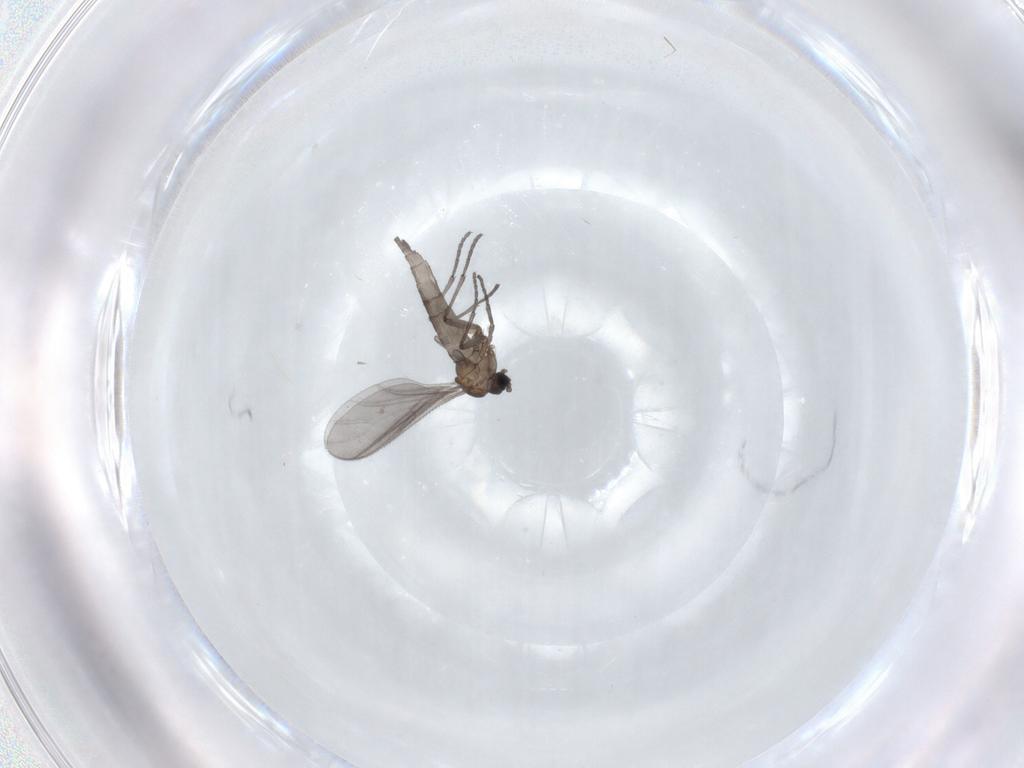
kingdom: Animalia
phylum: Arthropoda
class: Insecta
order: Diptera
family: Sciaridae
